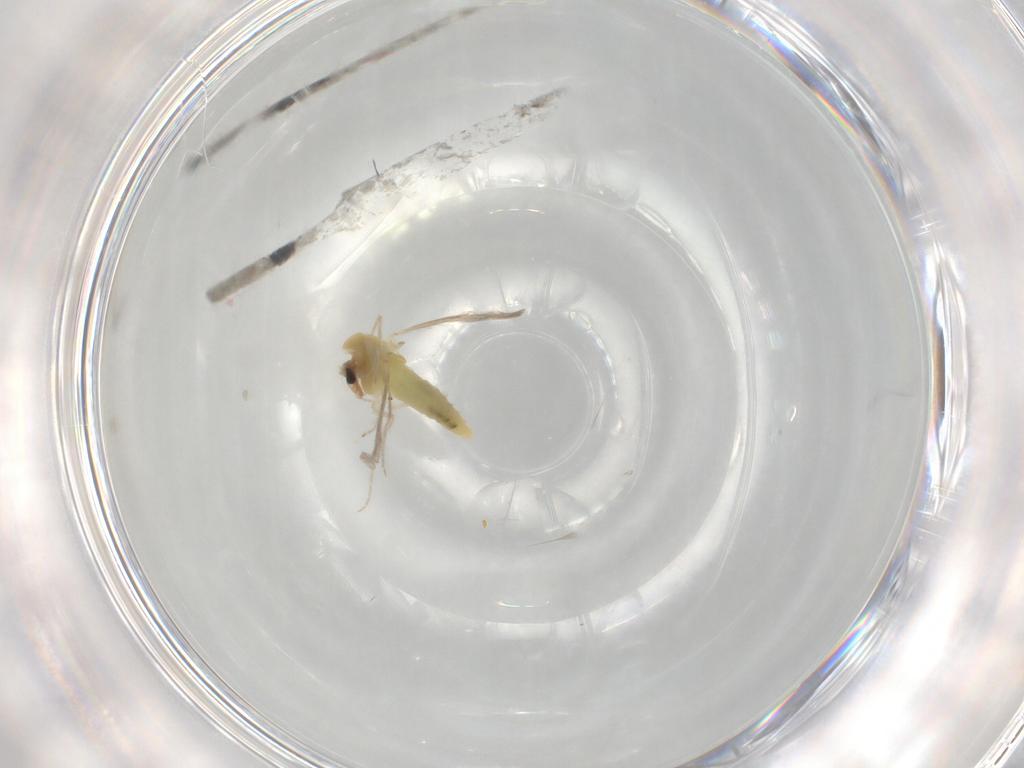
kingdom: Animalia
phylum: Arthropoda
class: Insecta
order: Diptera
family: Chironomidae
